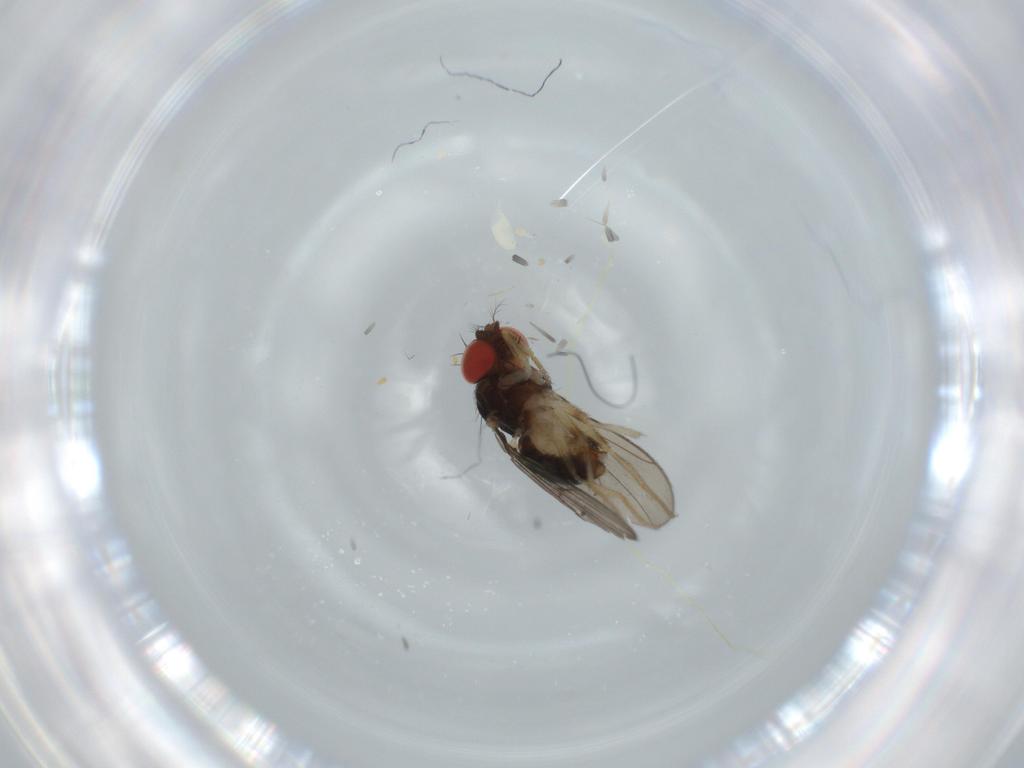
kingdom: Animalia
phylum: Arthropoda
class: Insecta
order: Diptera
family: Drosophilidae
